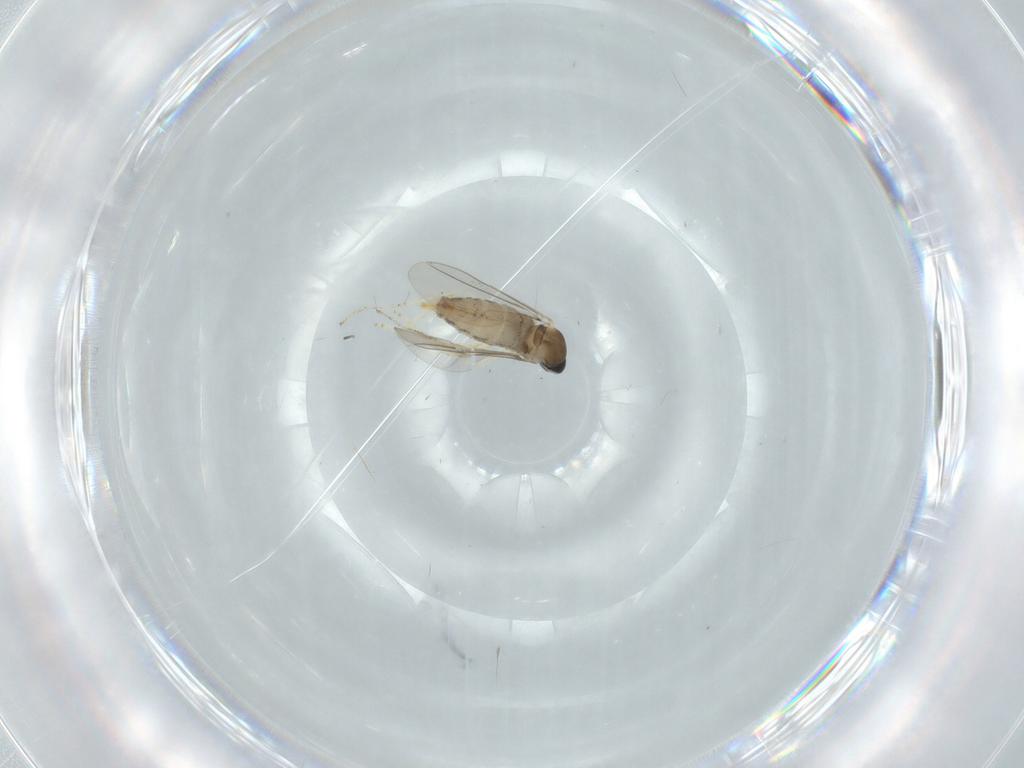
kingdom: Animalia
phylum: Arthropoda
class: Insecta
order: Diptera
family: Cecidomyiidae
